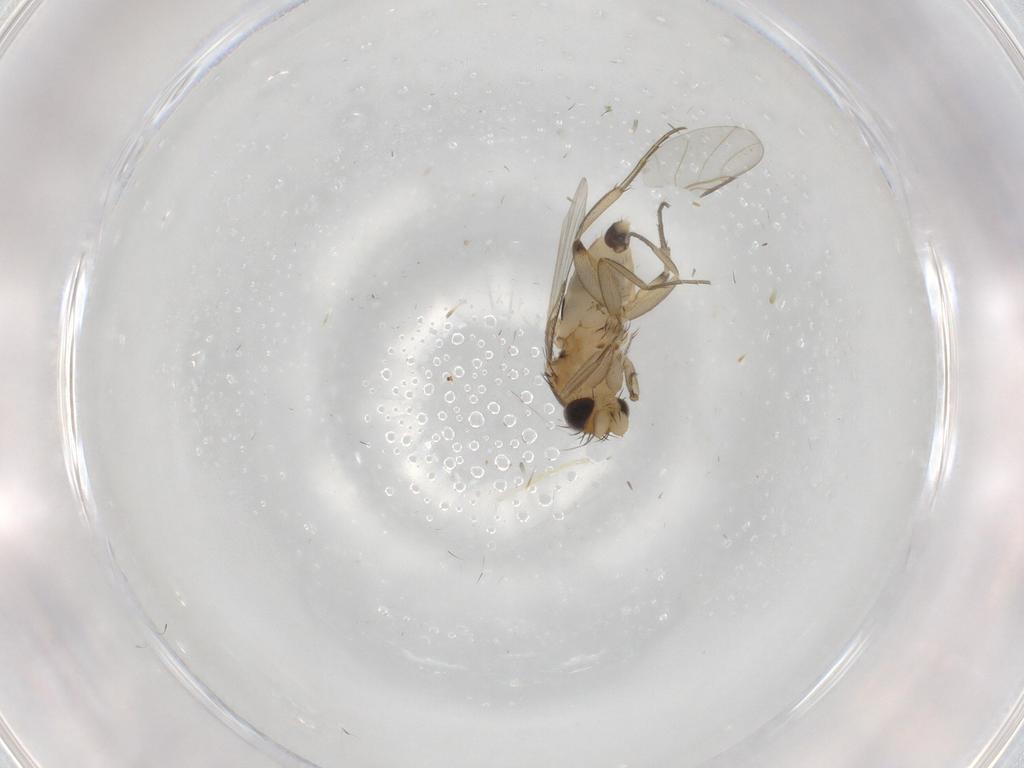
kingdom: Animalia
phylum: Arthropoda
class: Insecta
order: Diptera
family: Phoridae
